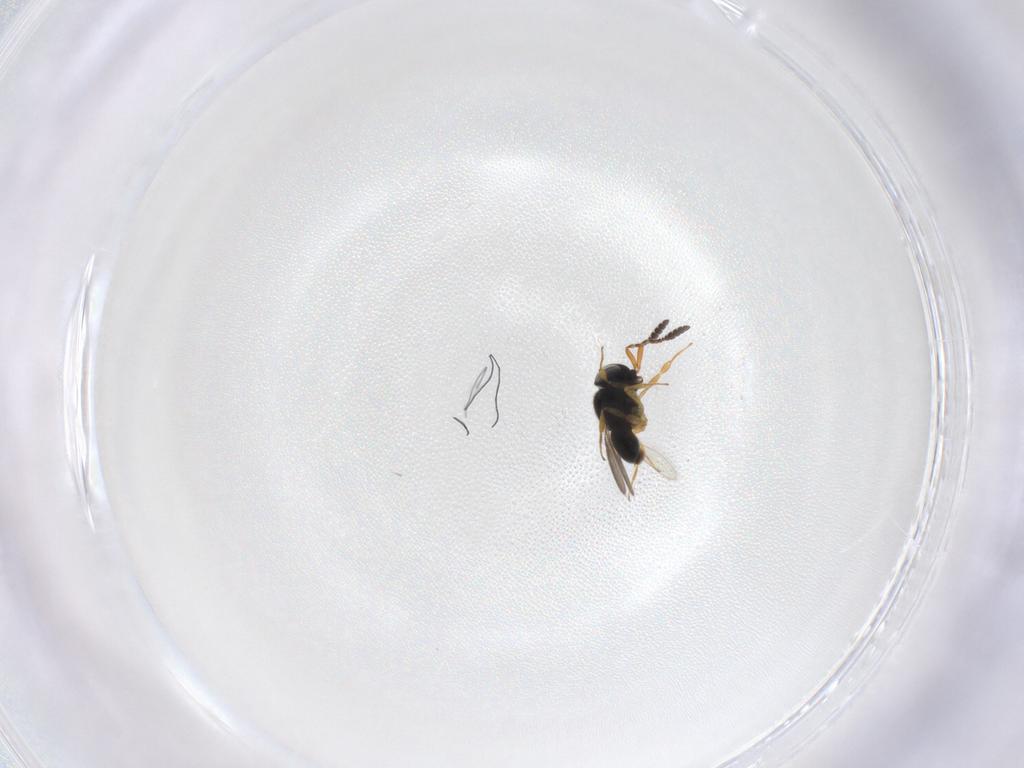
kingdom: Animalia
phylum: Arthropoda
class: Insecta
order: Hymenoptera
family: Scelionidae
